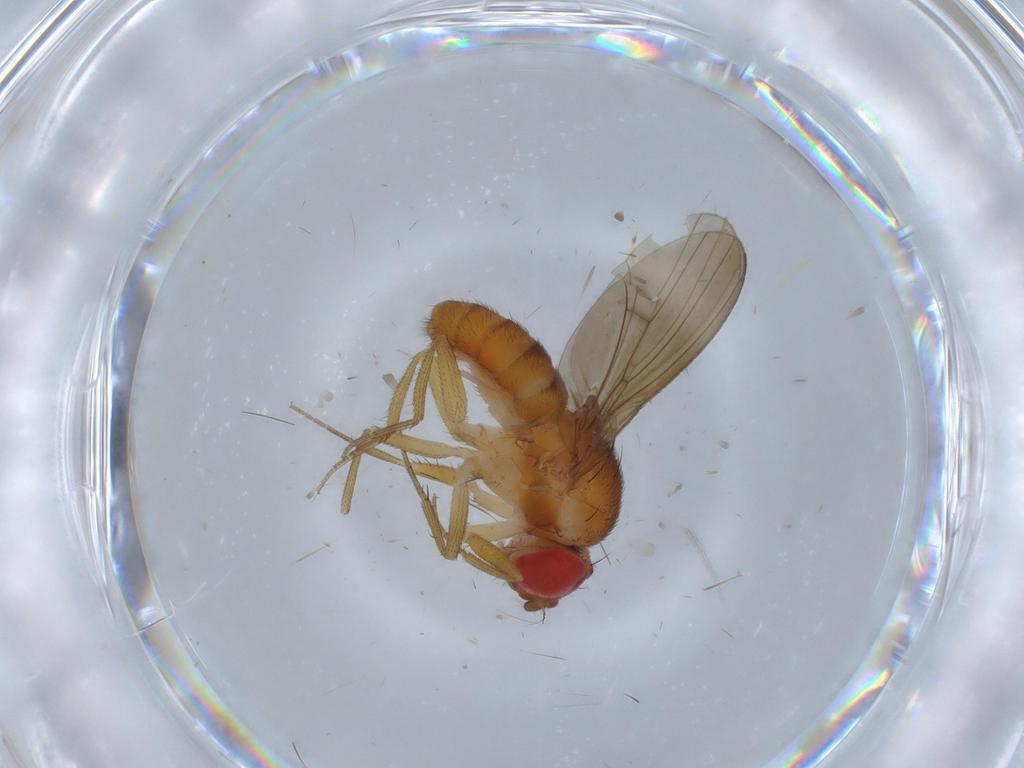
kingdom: Animalia
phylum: Arthropoda
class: Insecta
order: Diptera
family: Drosophilidae
